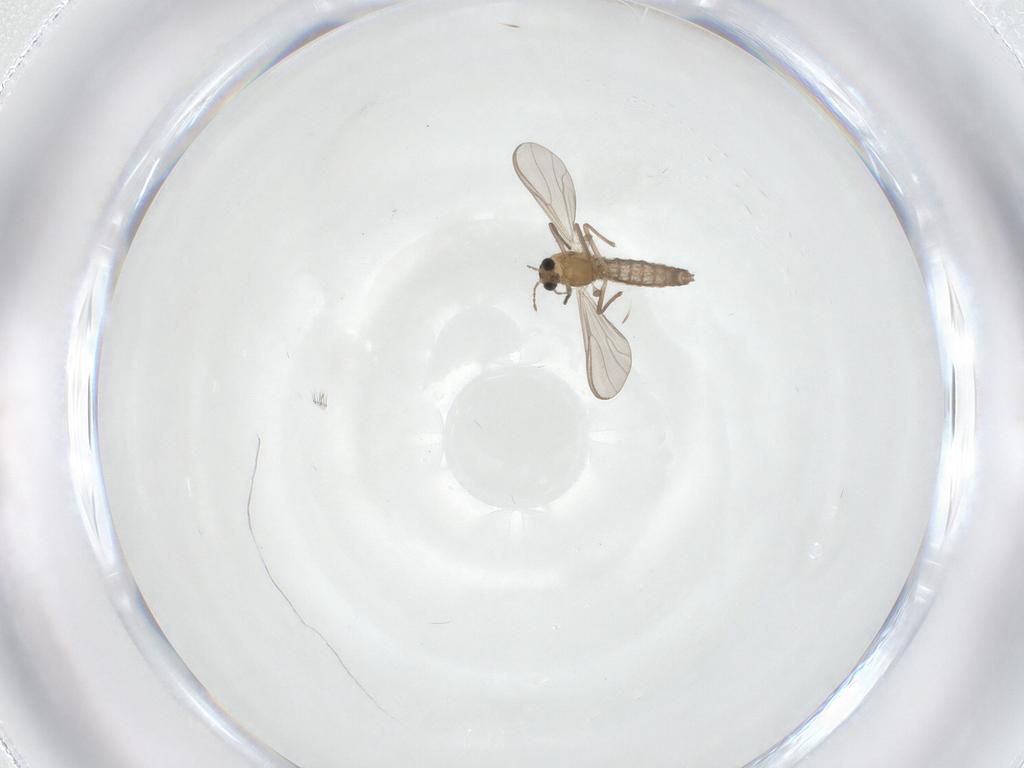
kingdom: Animalia
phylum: Arthropoda
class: Insecta
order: Diptera
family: Chironomidae
